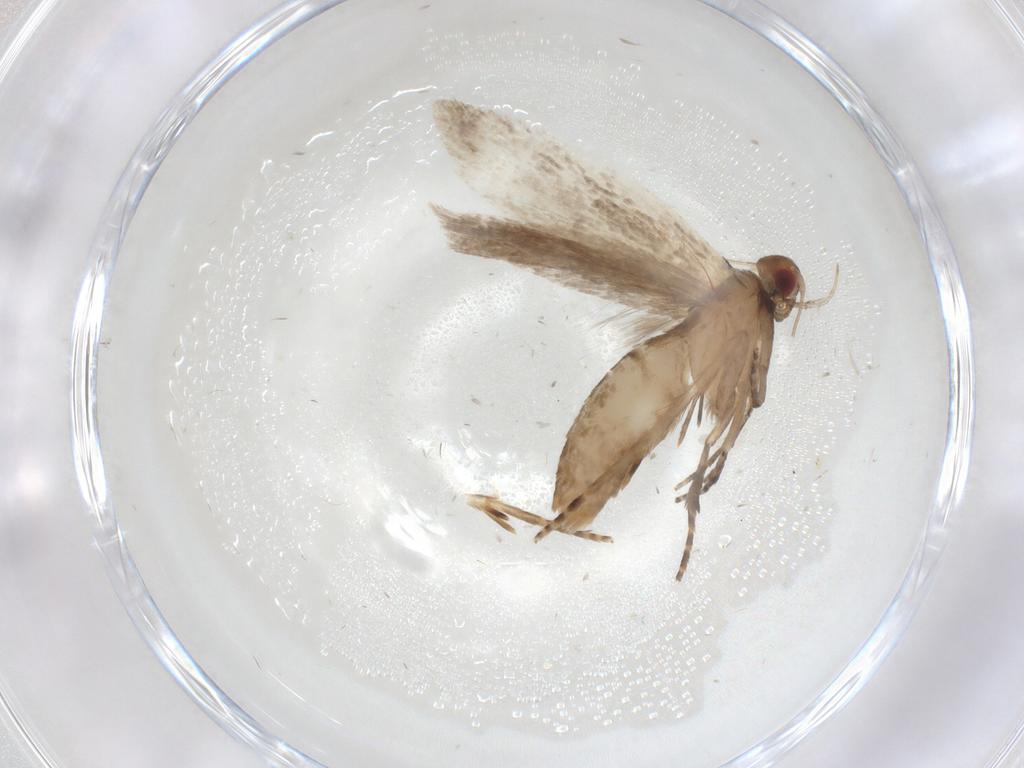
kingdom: Animalia
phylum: Arthropoda
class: Insecta
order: Lepidoptera
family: Gelechiidae
